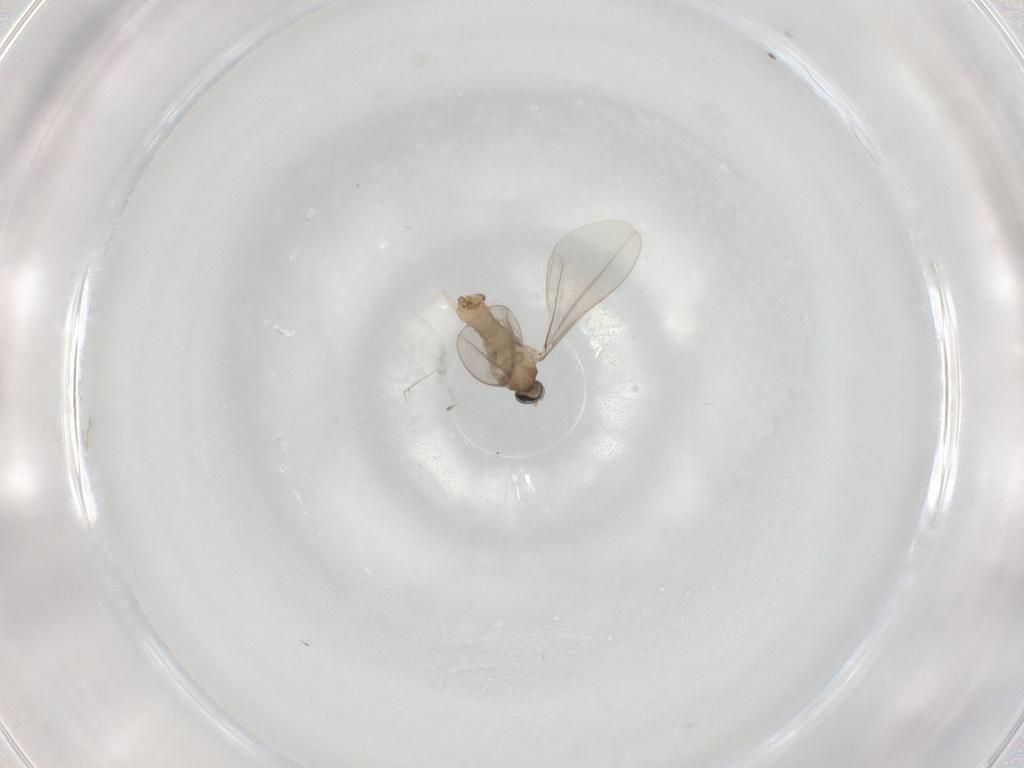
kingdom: Animalia
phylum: Arthropoda
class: Insecta
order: Diptera
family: Cecidomyiidae
